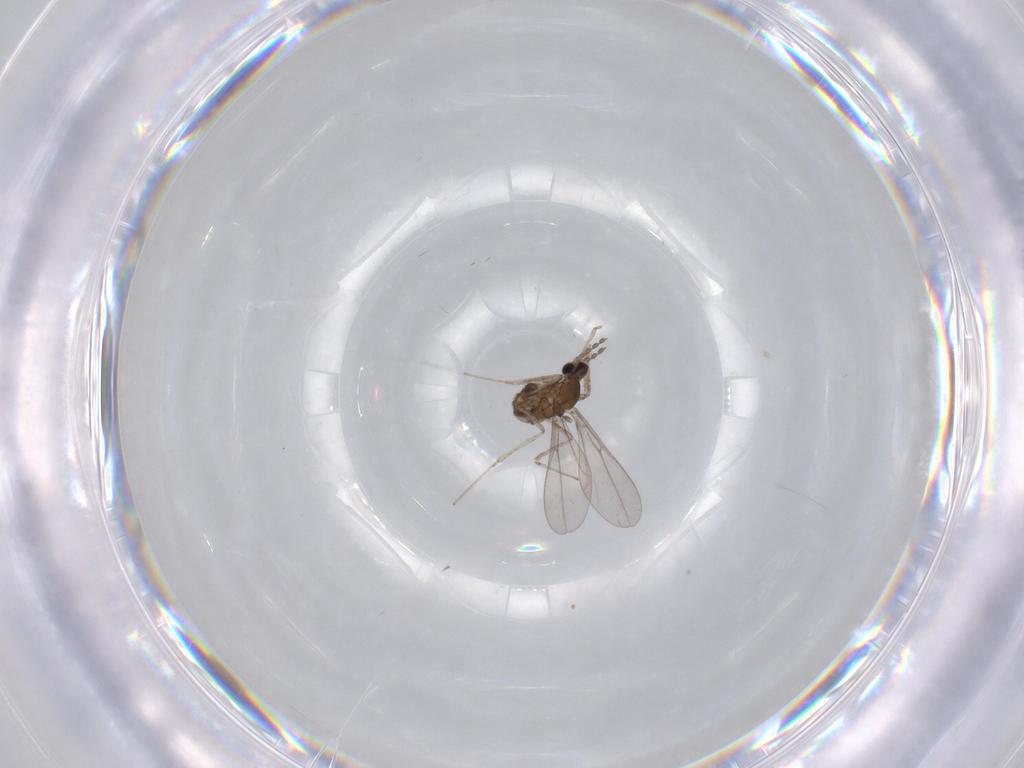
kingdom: Animalia
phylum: Arthropoda
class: Insecta
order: Diptera
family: Cecidomyiidae
